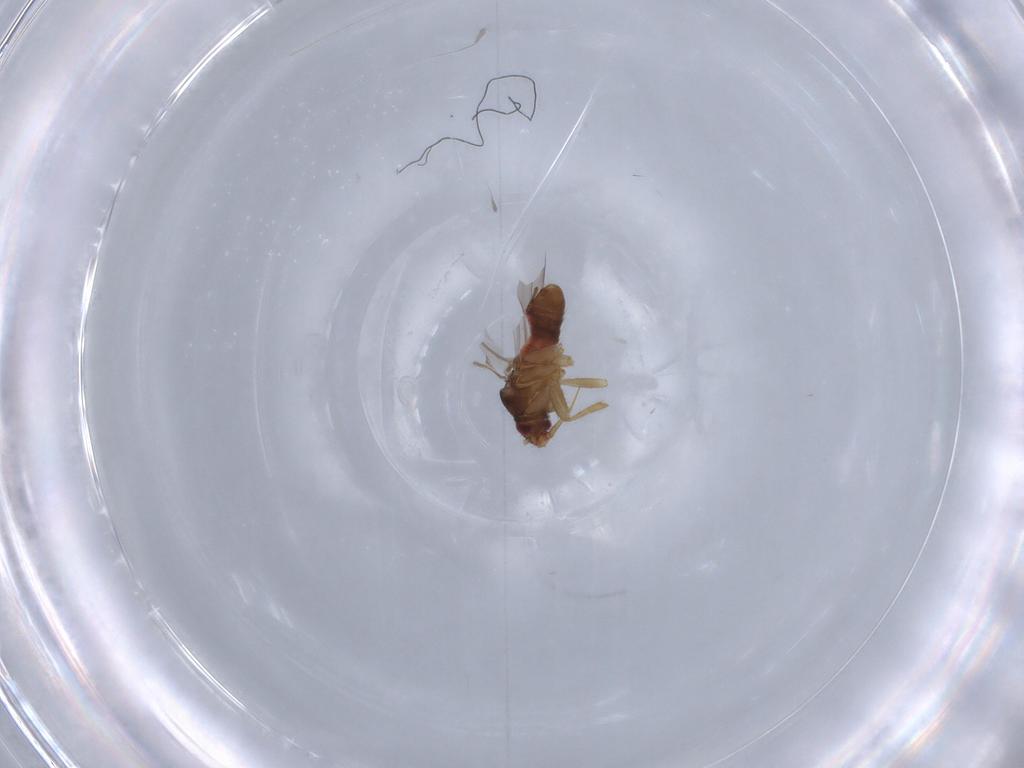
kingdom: Animalia
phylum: Arthropoda
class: Insecta
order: Hemiptera
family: Ceratocombidae
